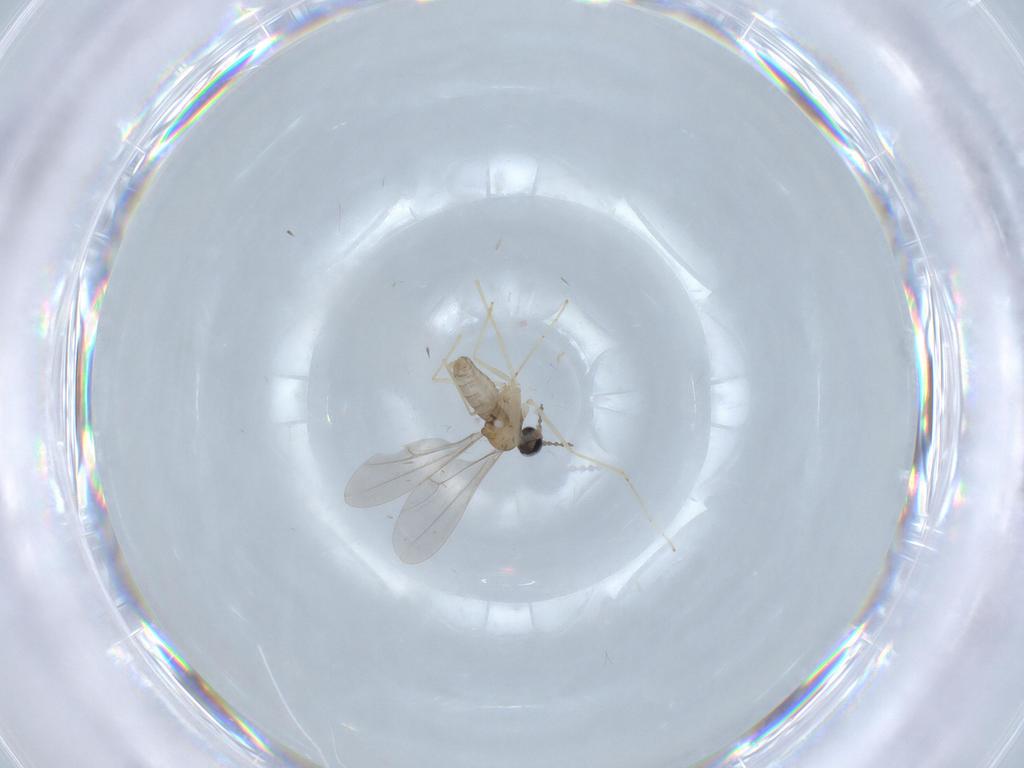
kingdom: Animalia
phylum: Arthropoda
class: Insecta
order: Diptera
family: Cecidomyiidae
